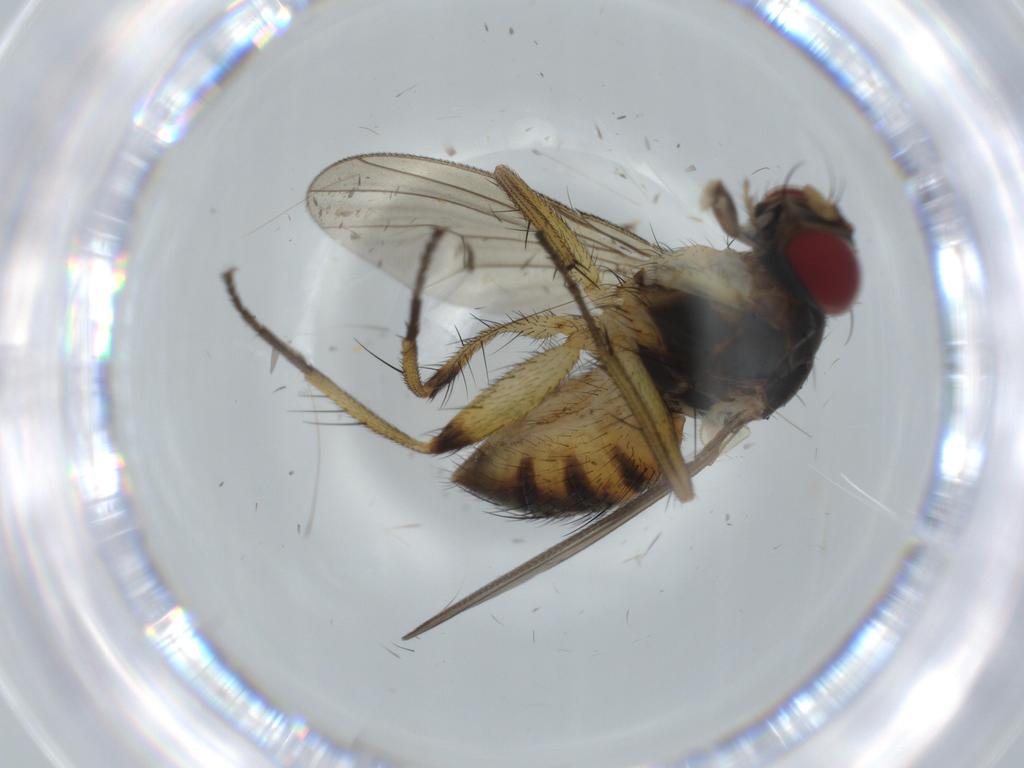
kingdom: Animalia
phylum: Arthropoda
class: Insecta
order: Diptera
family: Muscidae
